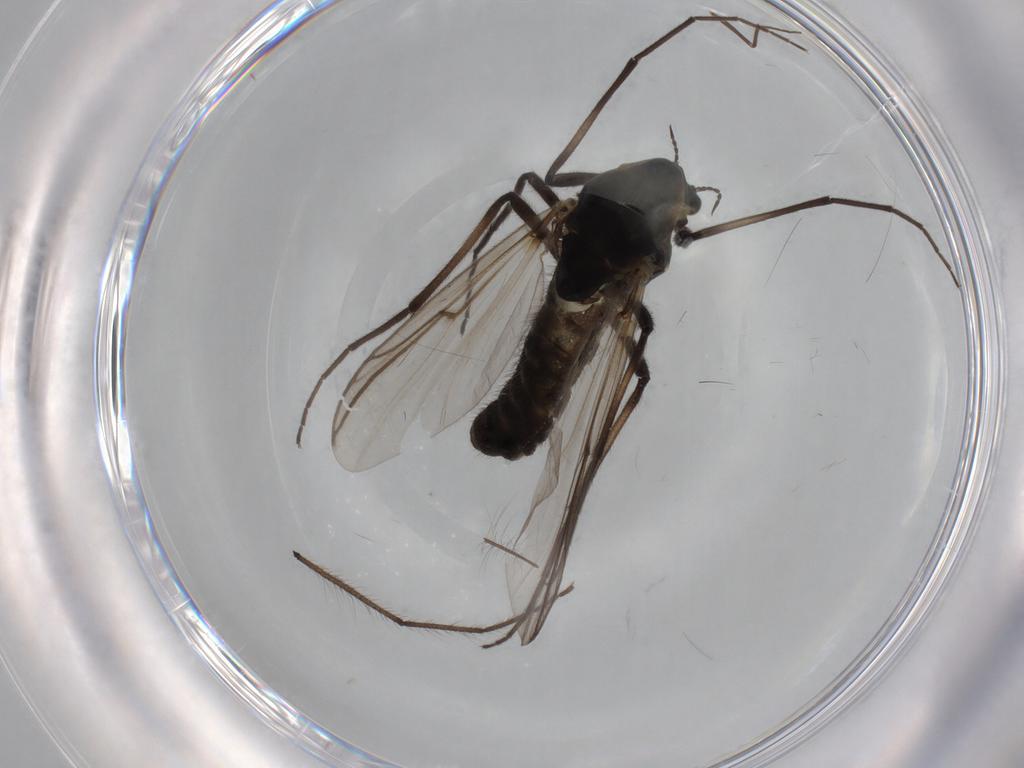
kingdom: Animalia
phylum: Arthropoda
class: Insecta
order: Diptera
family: Chironomidae
